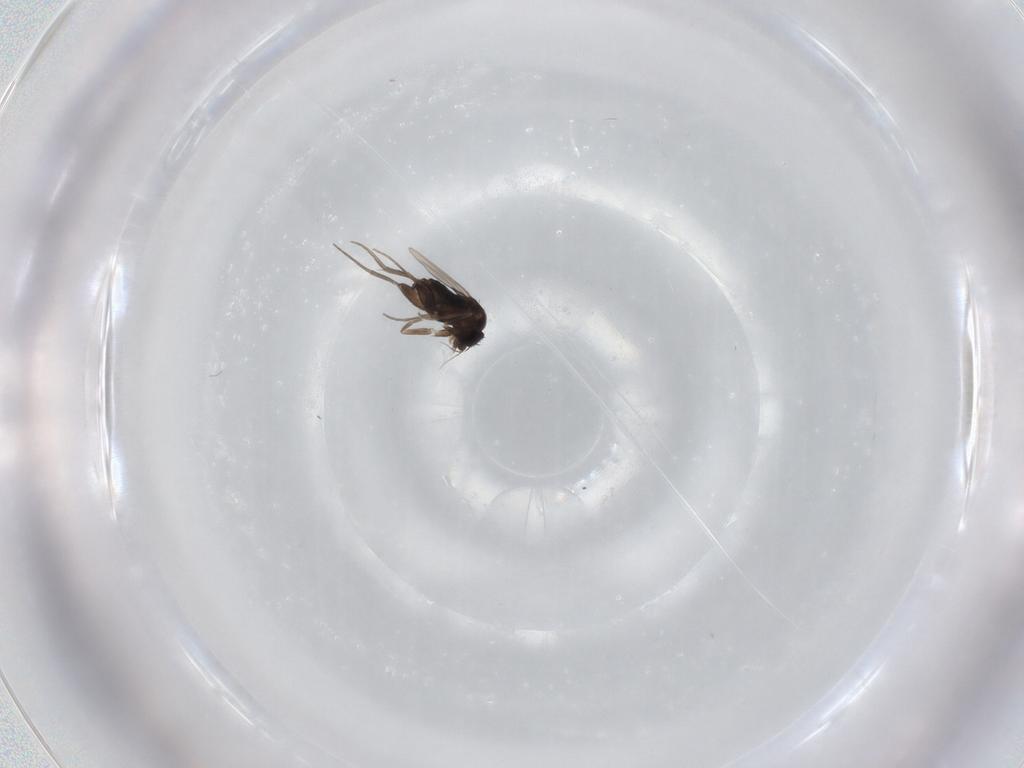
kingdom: Animalia
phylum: Arthropoda
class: Insecta
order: Diptera
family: Phoridae
